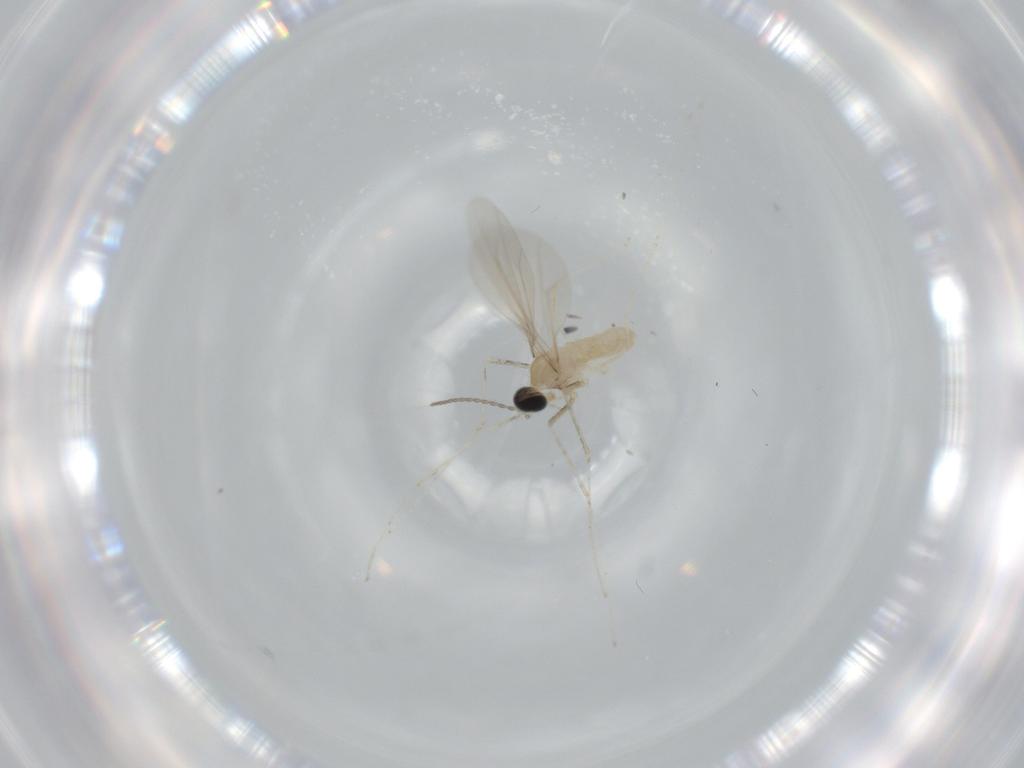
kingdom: Animalia
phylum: Arthropoda
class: Insecta
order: Diptera
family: Cecidomyiidae
